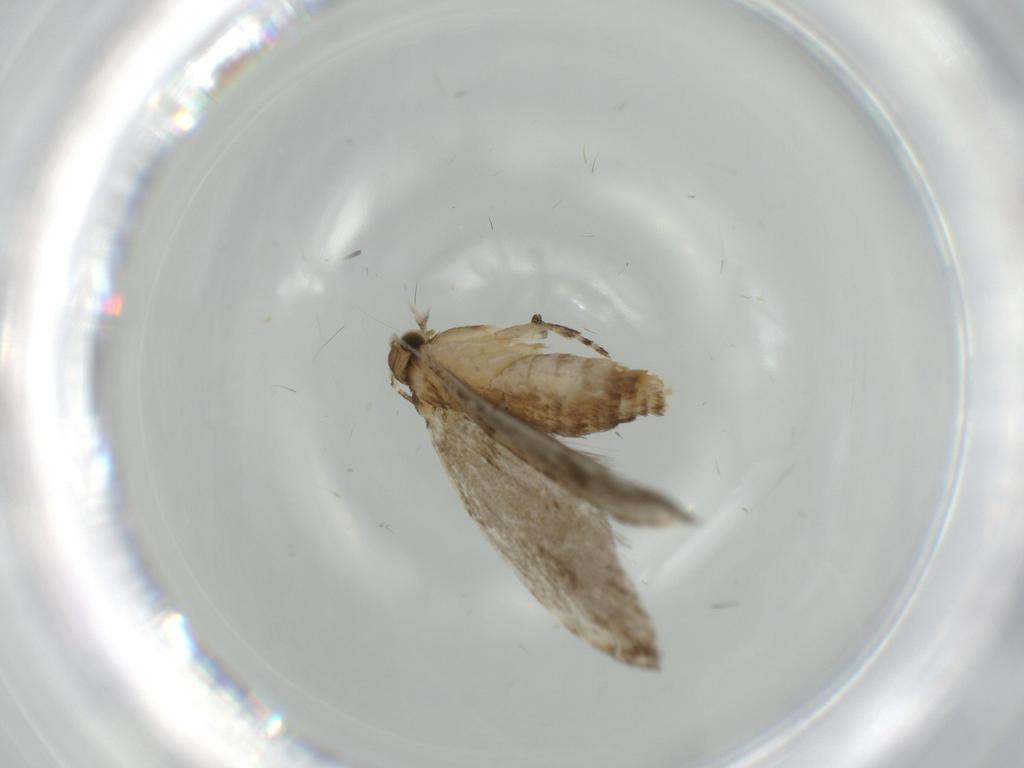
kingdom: Animalia
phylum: Arthropoda
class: Insecta
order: Lepidoptera
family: Tineidae
